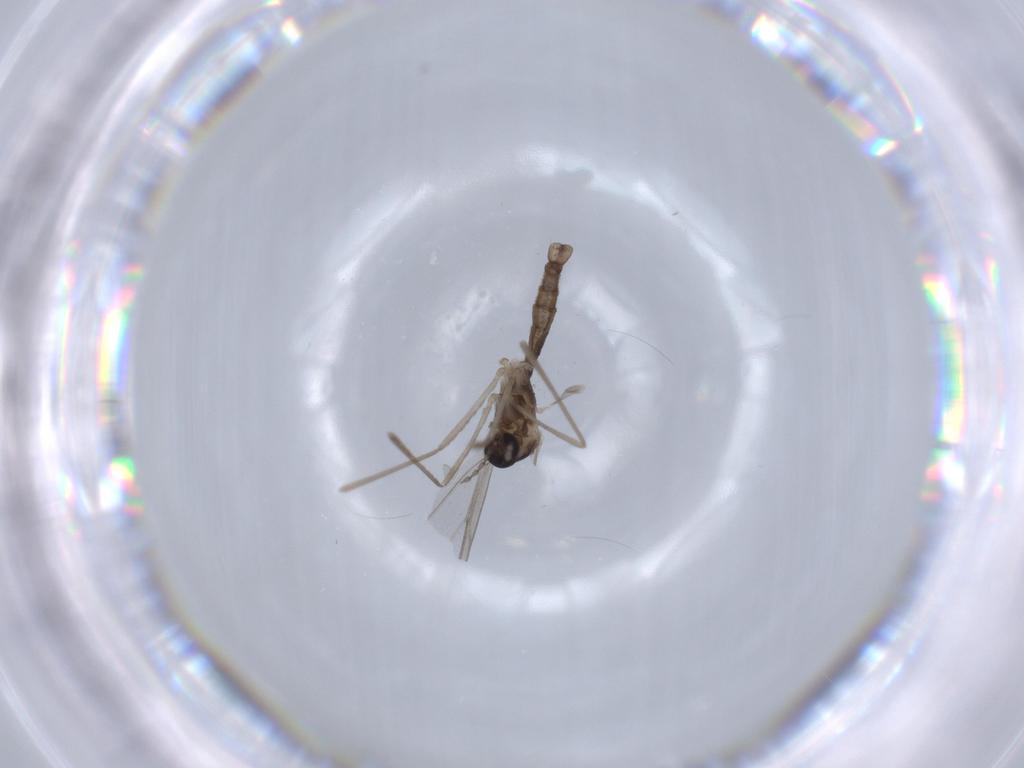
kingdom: Animalia
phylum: Arthropoda
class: Insecta
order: Diptera
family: Cecidomyiidae
